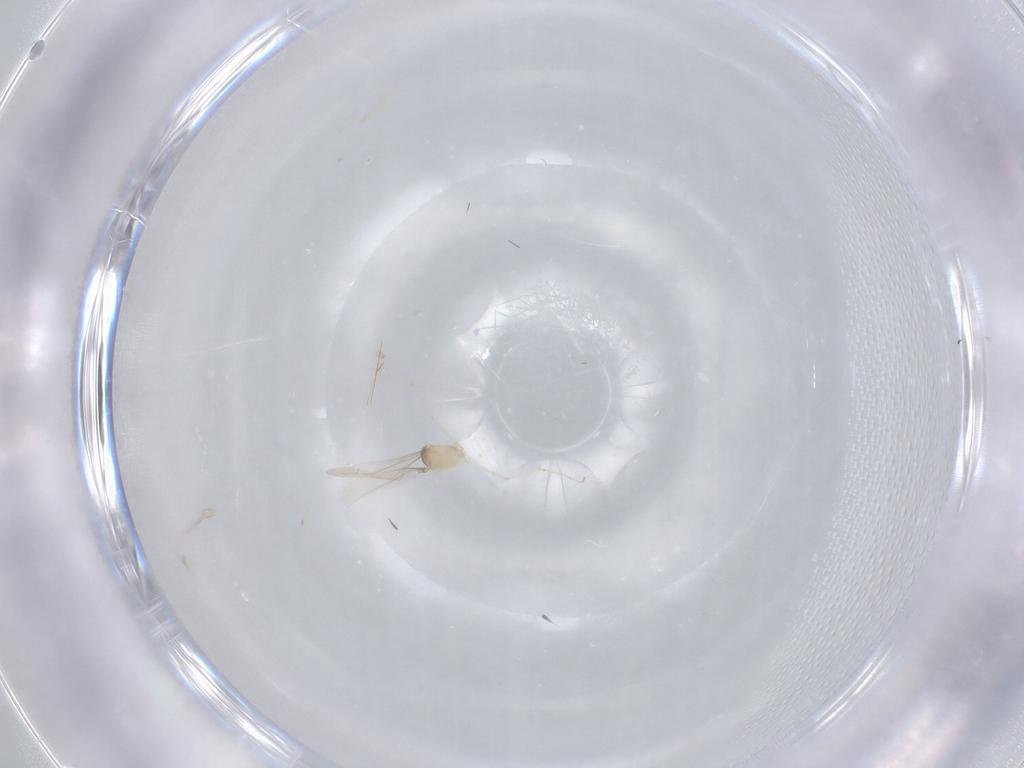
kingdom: Animalia
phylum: Arthropoda
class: Insecta
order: Diptera
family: Cecidomyiidae
